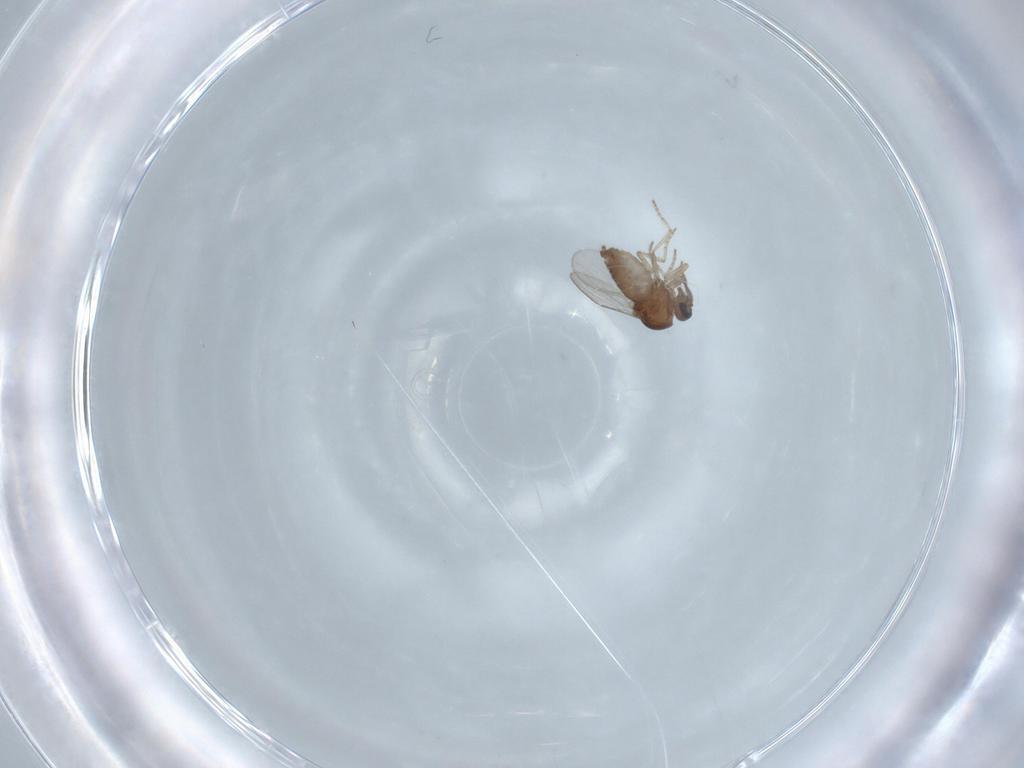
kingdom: Animalia
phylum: Arthropoda
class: Insecta
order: Diptera
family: Ceratopogonidae
